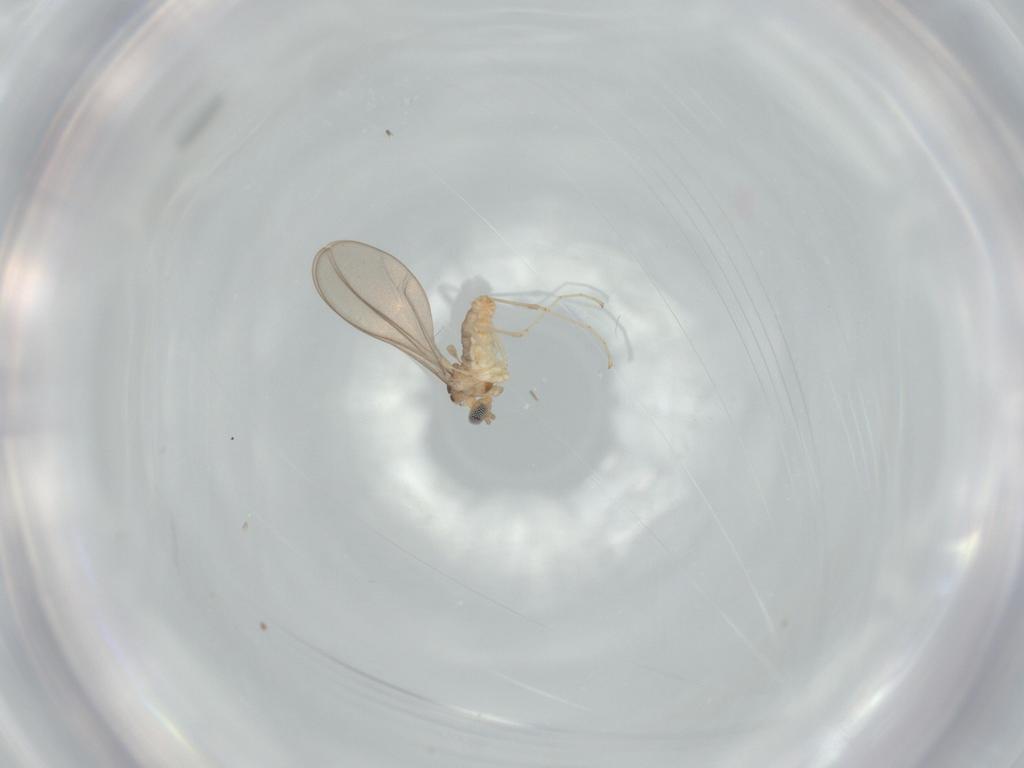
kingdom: Animalia
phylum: Arthropoda
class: Insecta
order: Diptera
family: Cecidomyiidae
